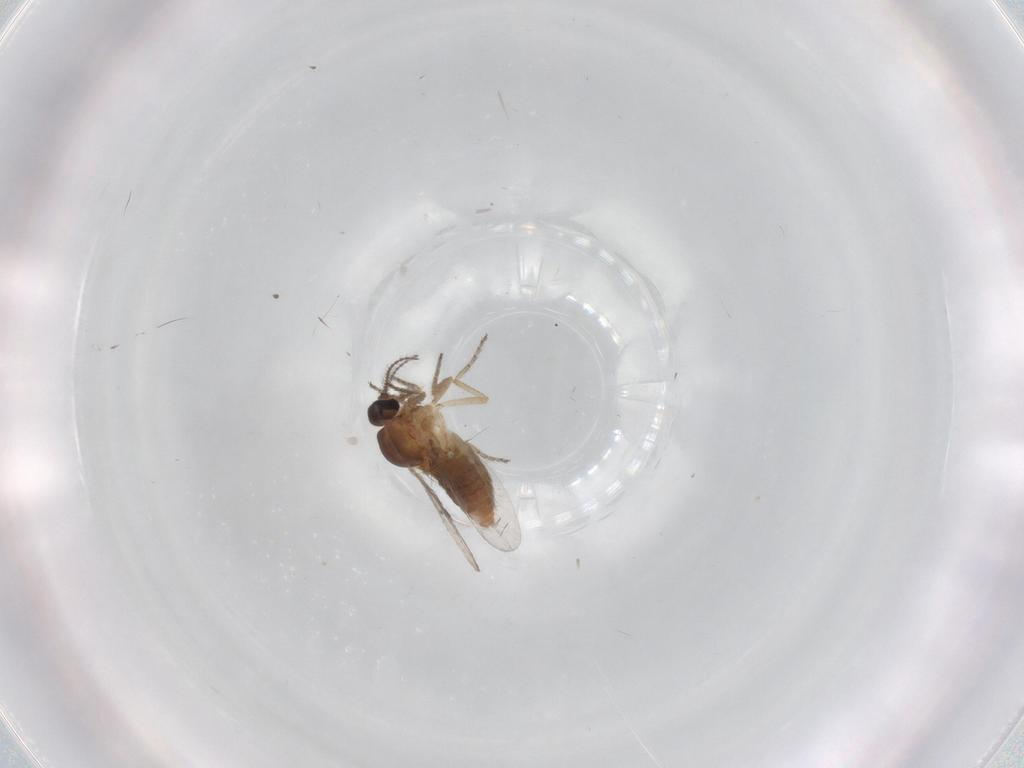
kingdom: Animalia
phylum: Arthropoda
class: Insecta
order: Diptera
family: Ceratopogonidae
